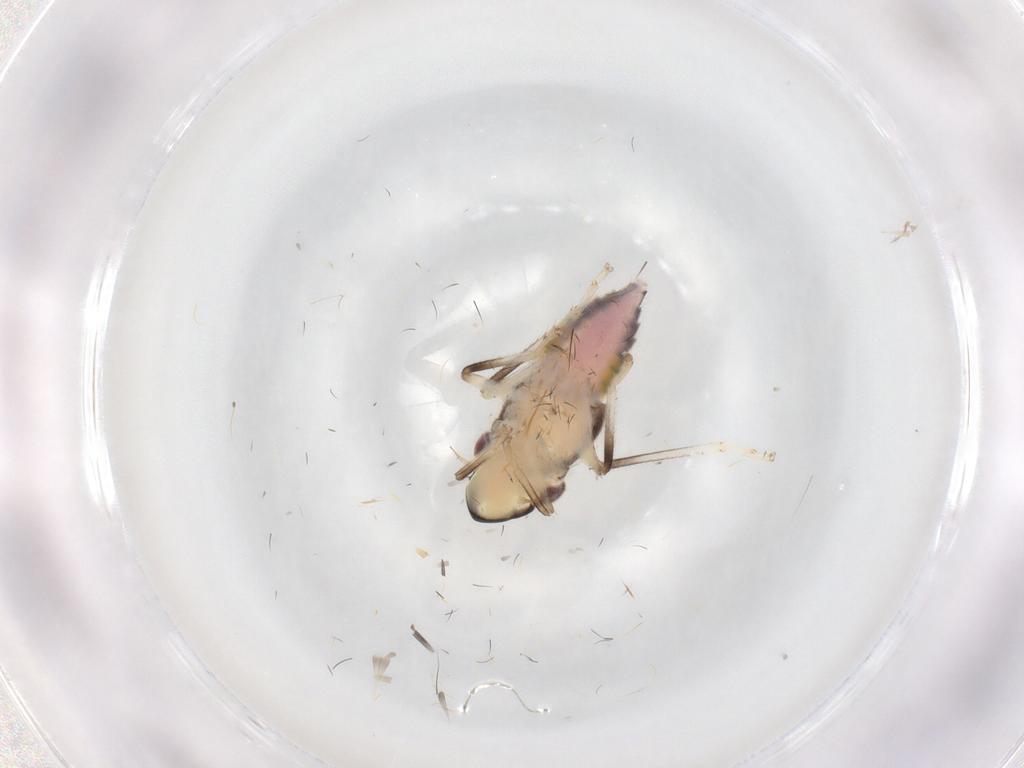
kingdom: Animalia
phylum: Arthropoda
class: Insecta
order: Hemiptera
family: Cicadellidae
